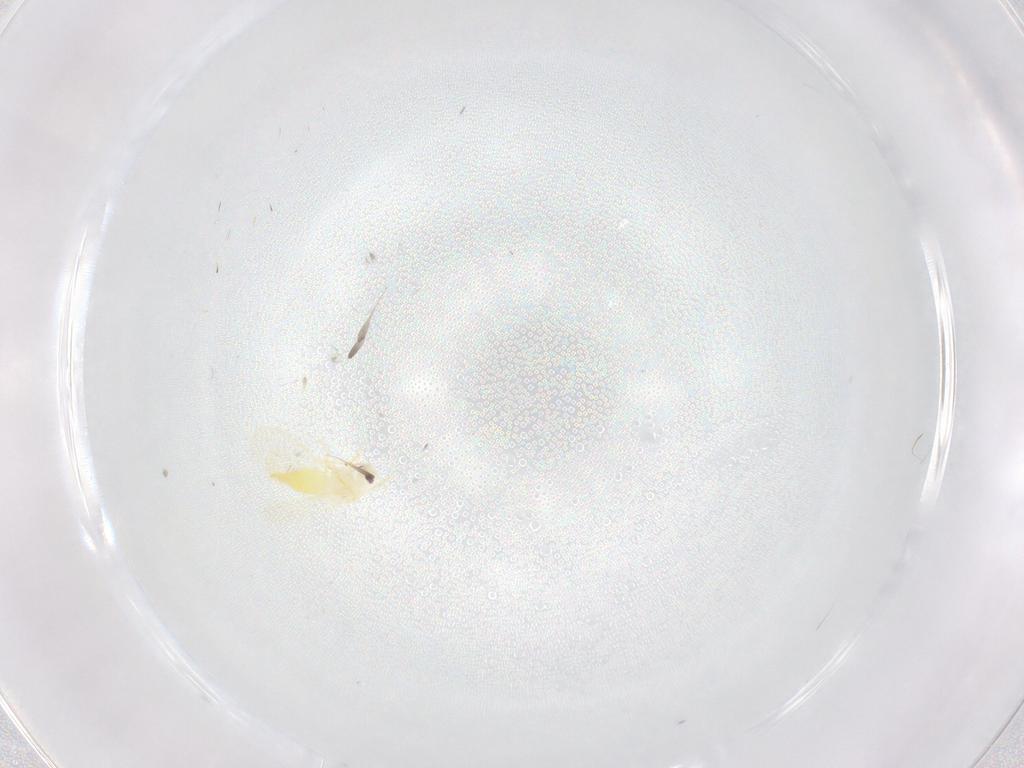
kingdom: Animalia
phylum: Arthropoda
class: Insecta
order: Hemiptera
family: Aleyrodidae
